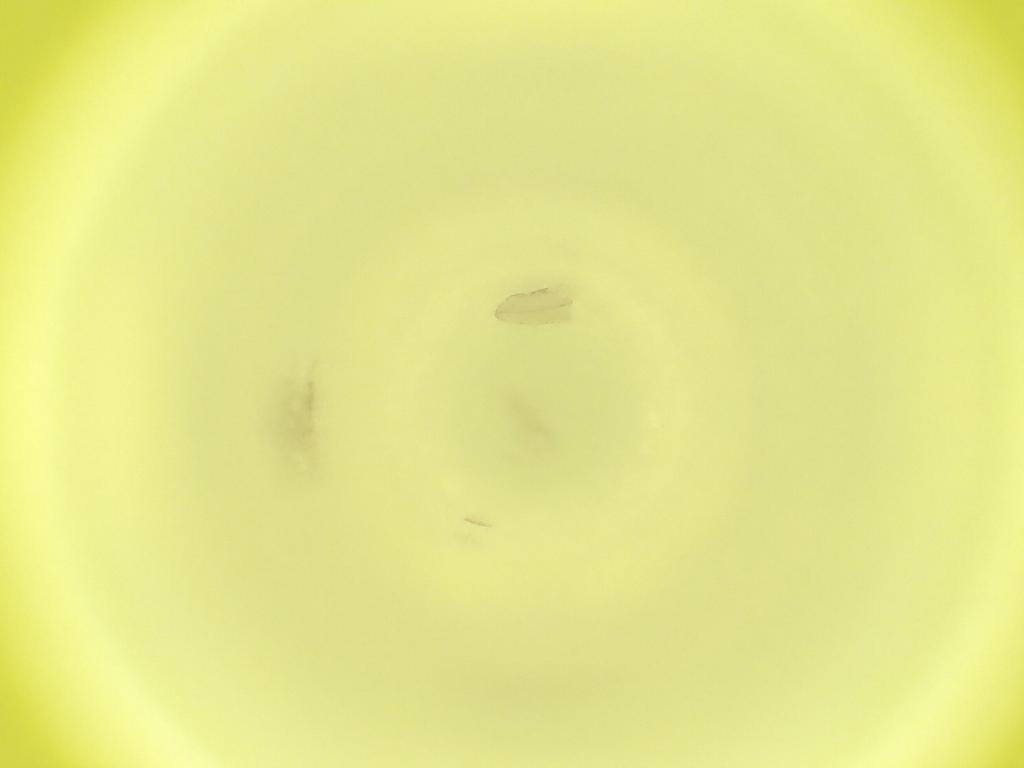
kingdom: Animalia
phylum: Arthropoda
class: Insecta
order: Diptera
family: Cecidomyiidae
